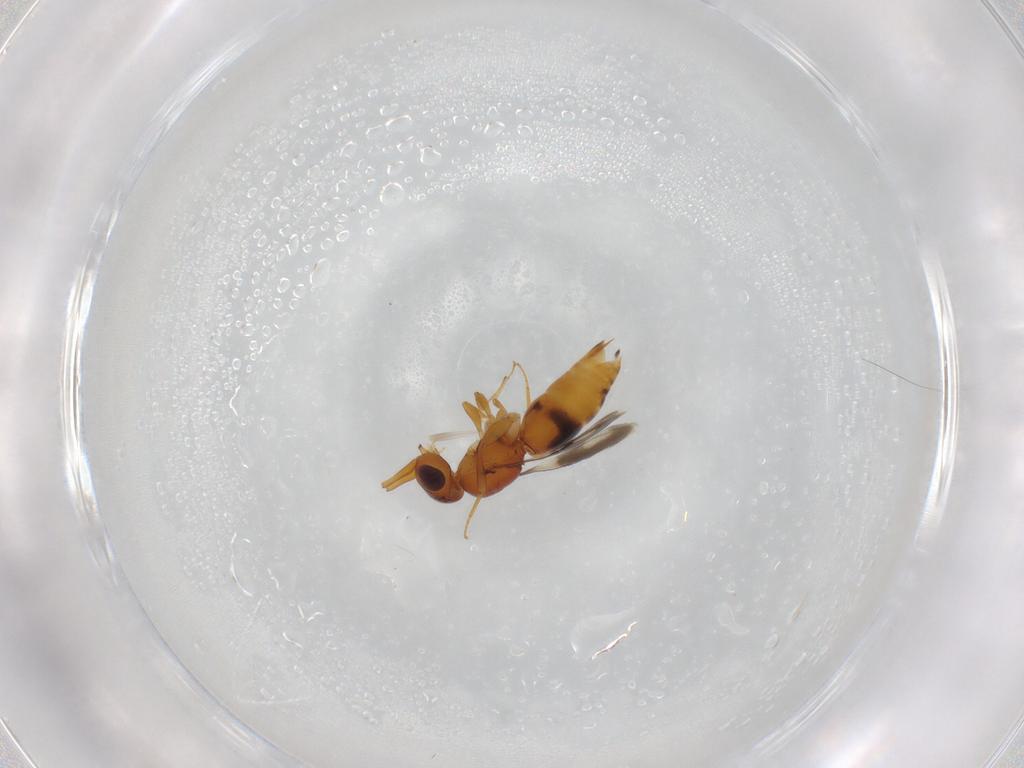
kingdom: Animalia
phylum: Arthropoda
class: Insecta
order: Hymenoptera
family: Ceraphronidae
